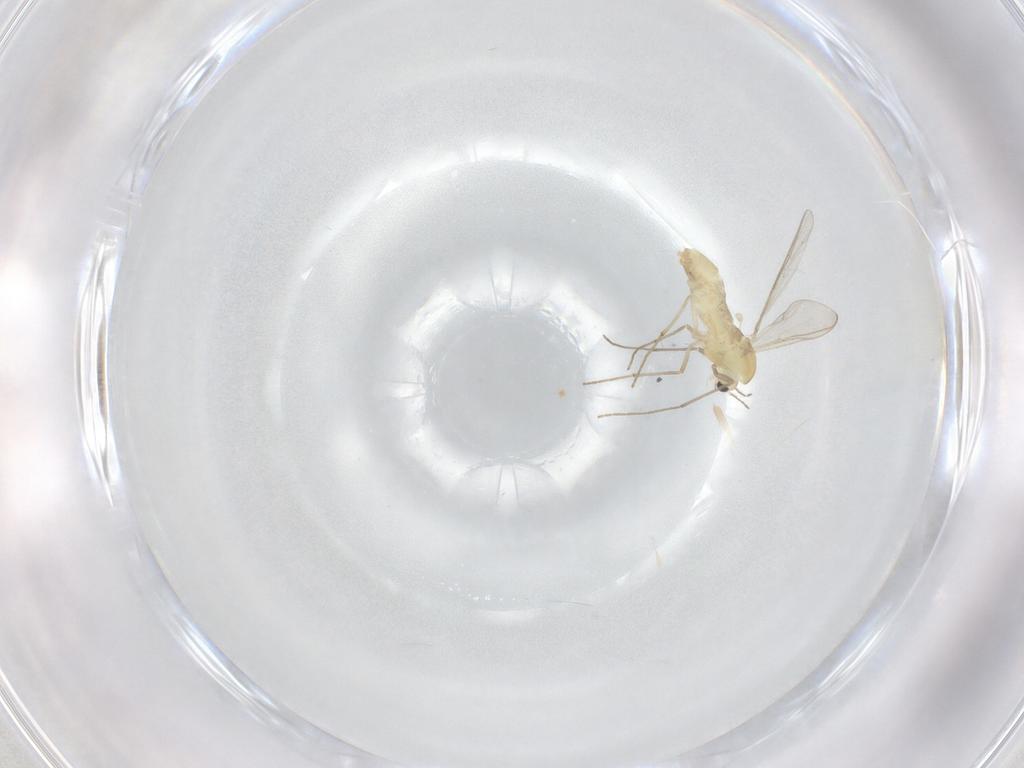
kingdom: Animalia
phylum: Arthropoda
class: Insecta
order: Diptera
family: Chironomidae
